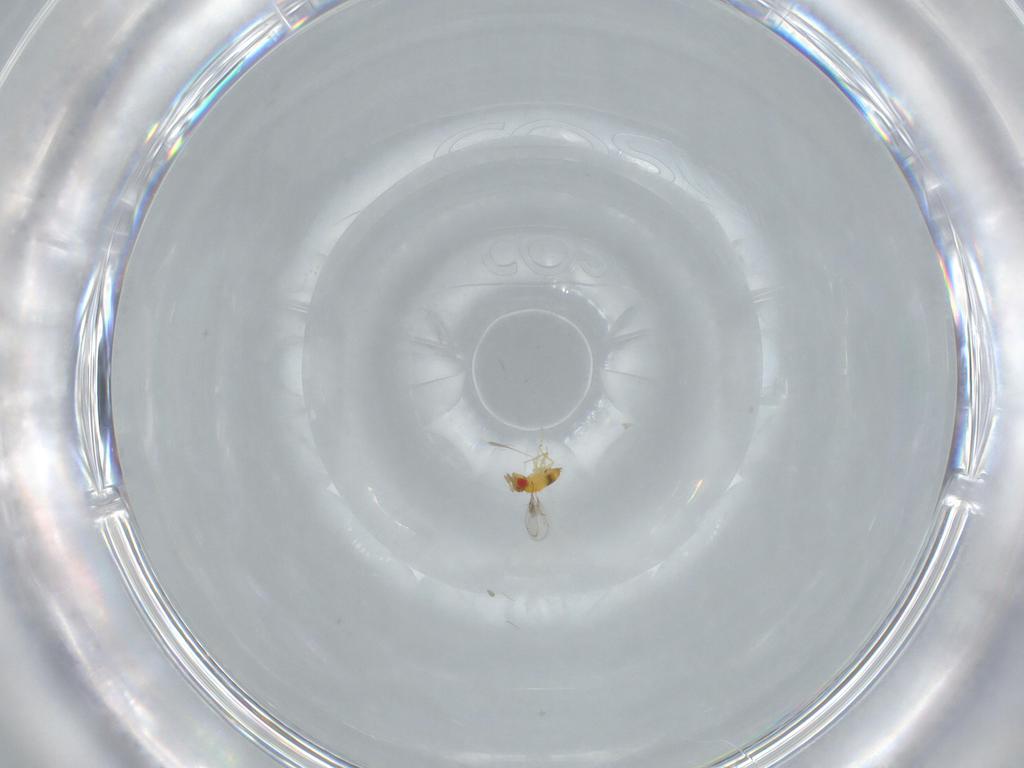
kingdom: Animalia
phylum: Arthropoda
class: Insecta
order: Hymenoptera
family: Trichogrammatidae
